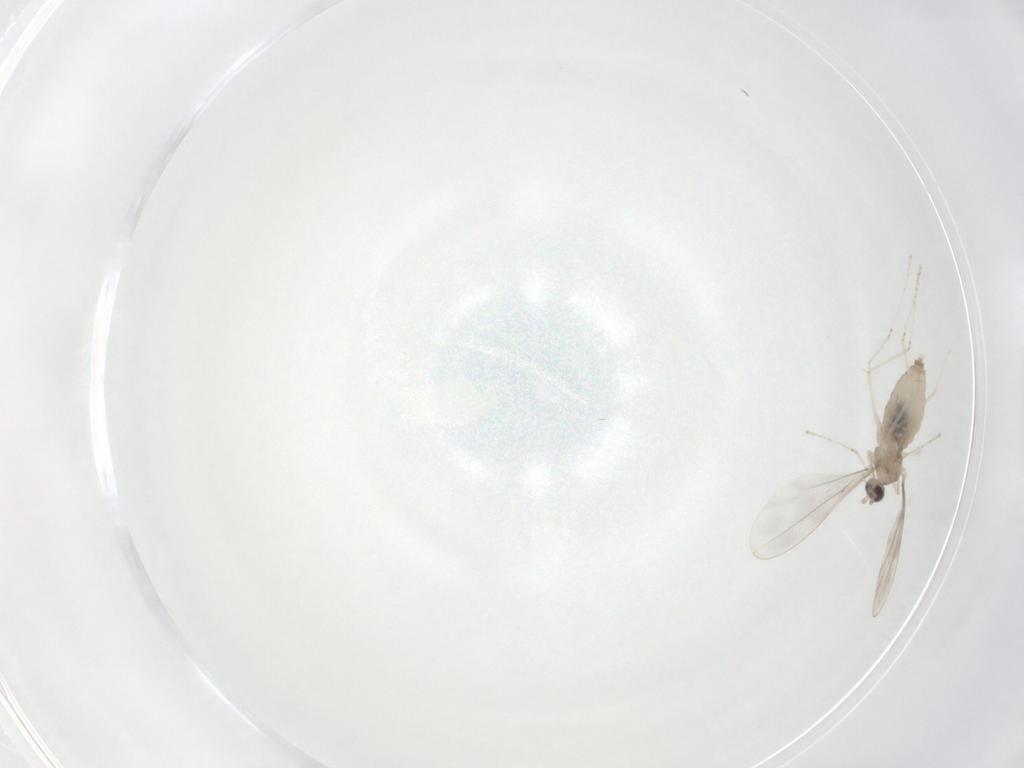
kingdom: Animalia
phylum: Arthropoda
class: Insecta
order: Diptera
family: Cecidomyiidae
